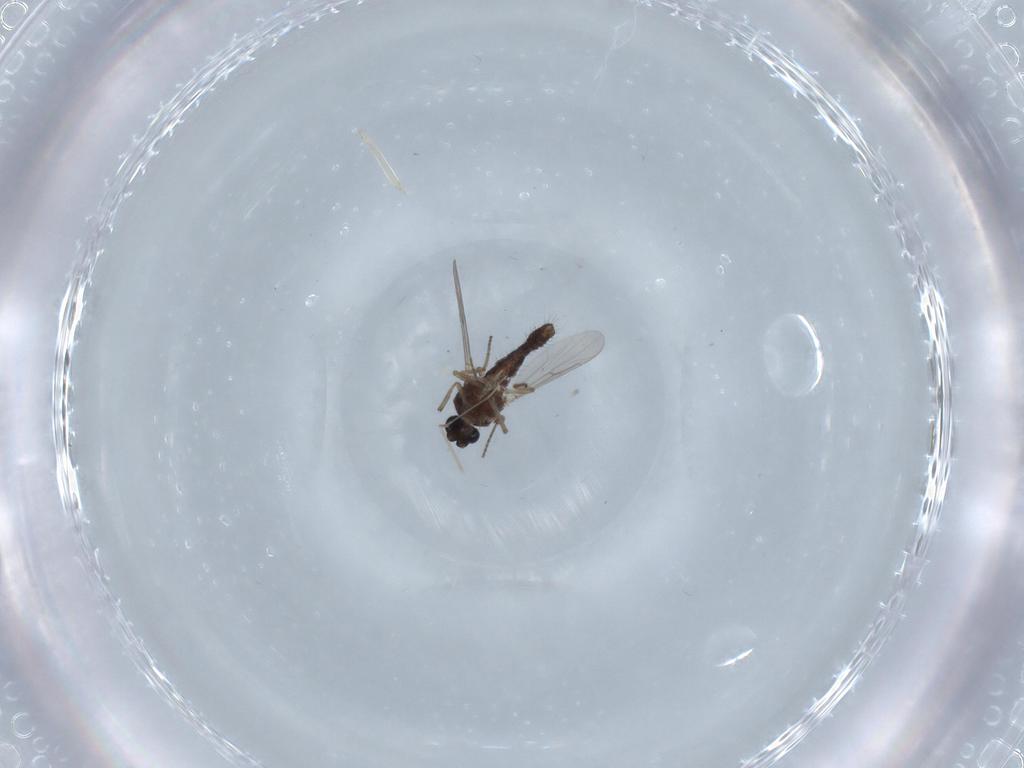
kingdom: Animalia
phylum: Arthropoda
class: Insecta
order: Diptera
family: Ceratopogonidae
